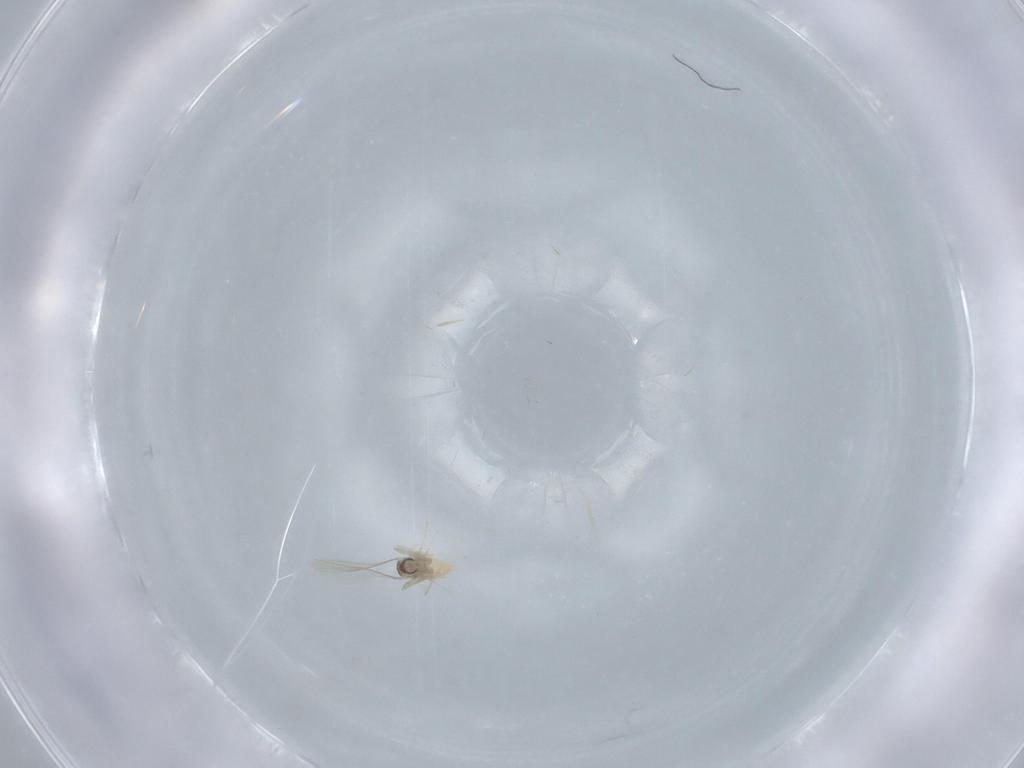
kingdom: Animalia
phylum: Arthropoda
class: Insecta
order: Diptera
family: Cecidomyiidae
